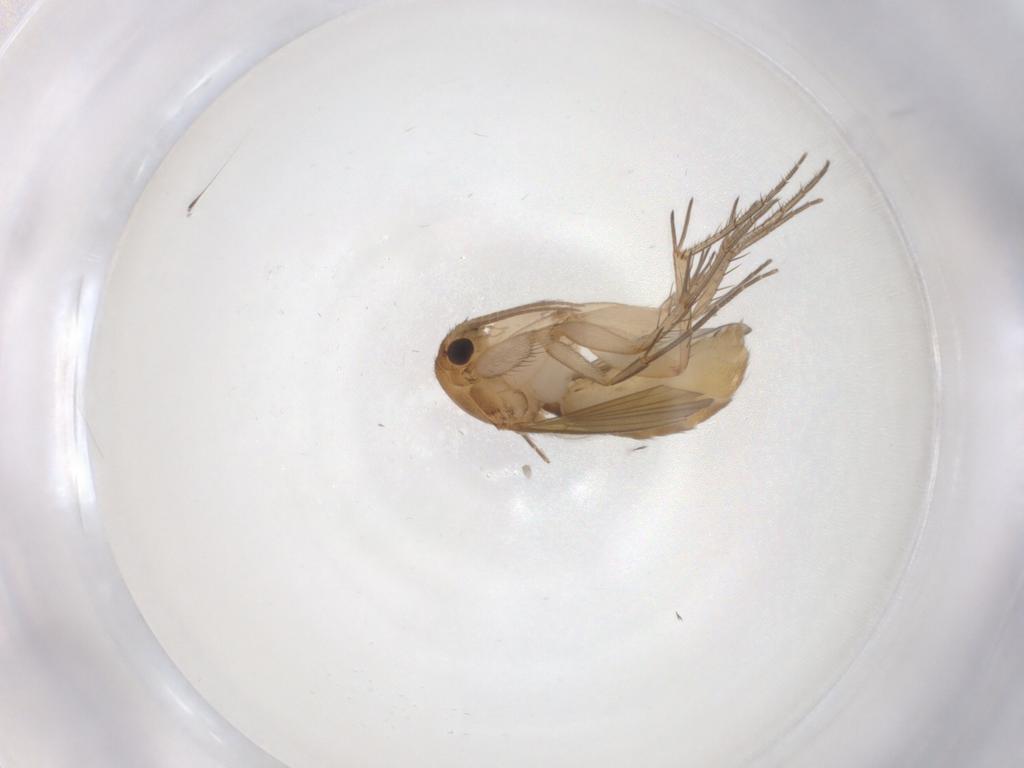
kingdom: Animalia
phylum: Arthropoda
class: Insecta
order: Diptera
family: Mycetophilidae
